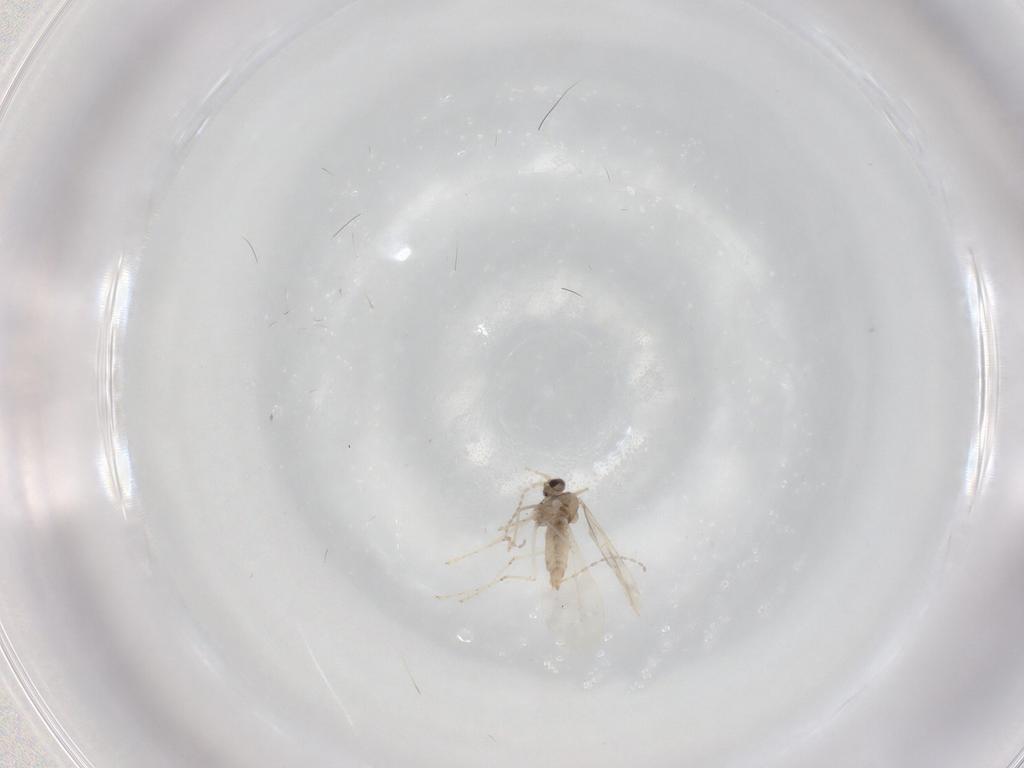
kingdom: Animalia
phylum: Arthropoda
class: Insecta
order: Diptera
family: Cecidomyiidae
